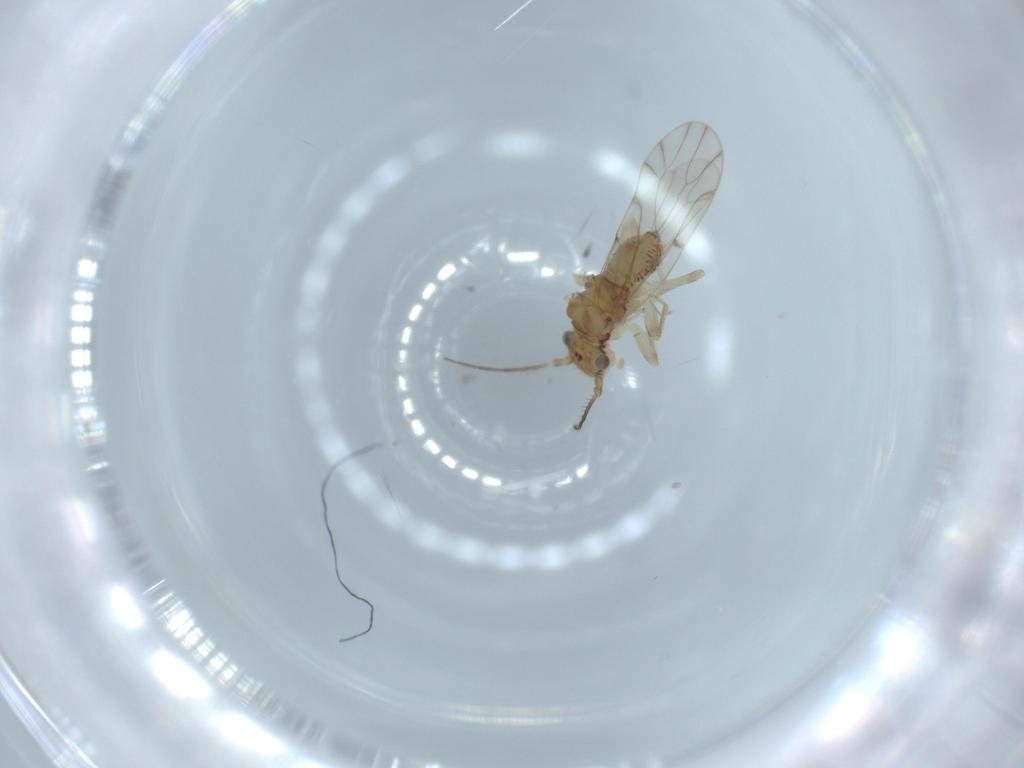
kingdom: Animalia
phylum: Arthropoda
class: Insecta
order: Psocodea
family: Ectopsocidae
